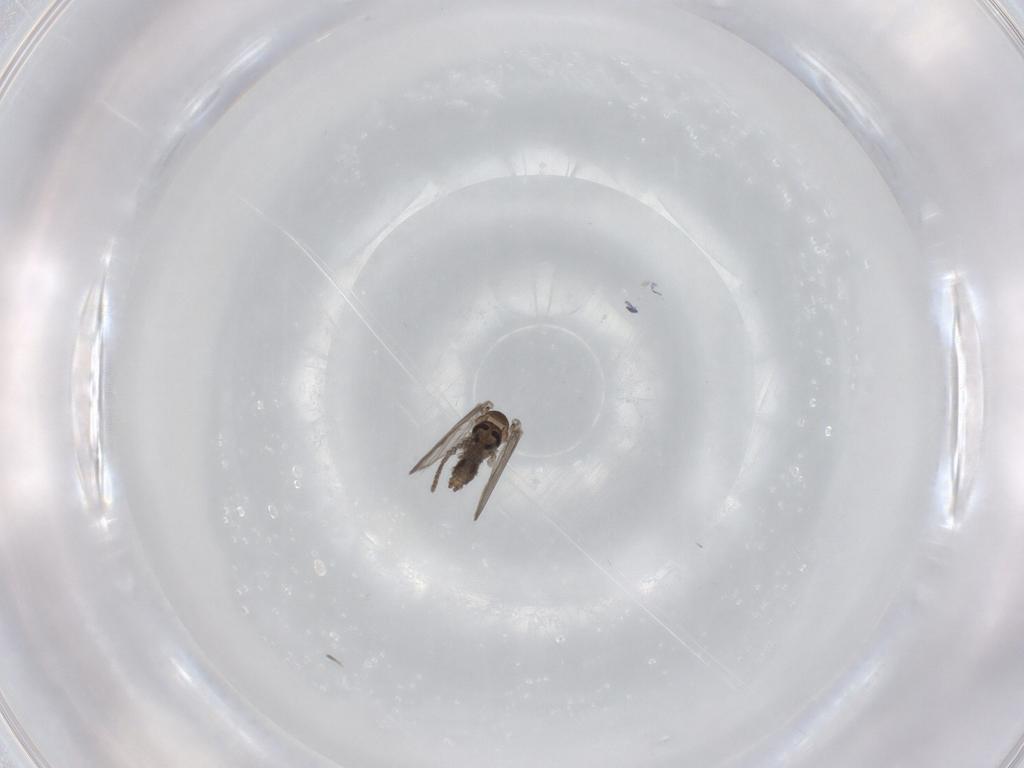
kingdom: Animalia
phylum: Arthropoda
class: Insecta
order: Diptera
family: Psychodidae
